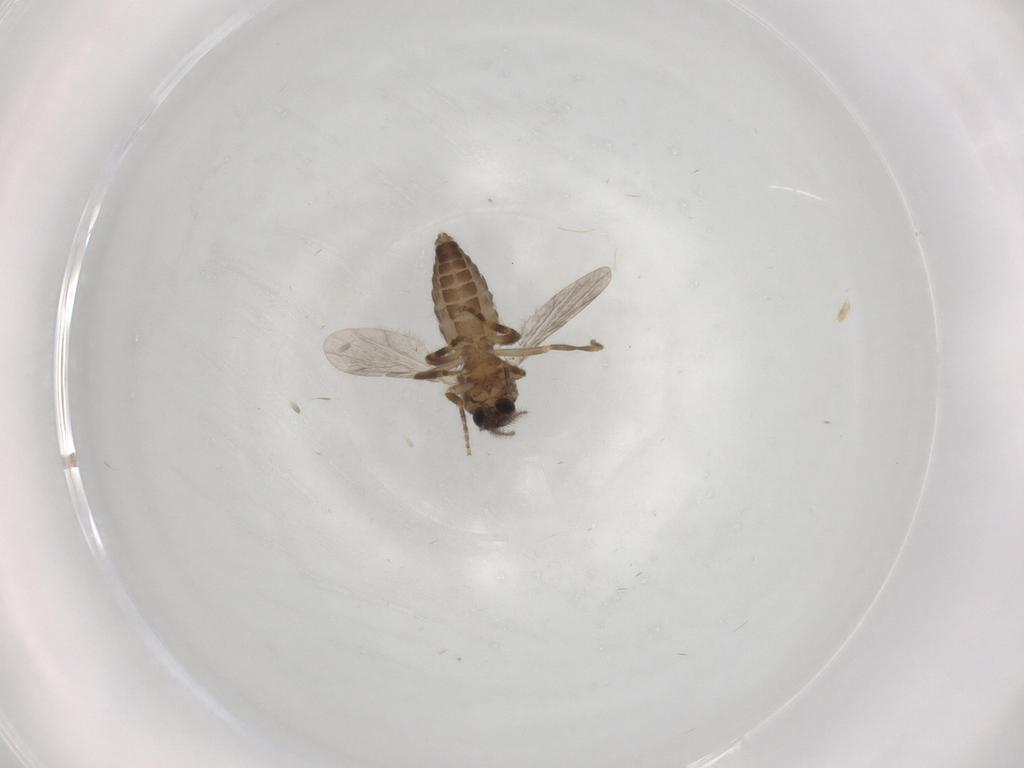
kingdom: Animalia
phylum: Arthropoda
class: Insecta
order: Diptera
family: Ceratopogonidae
